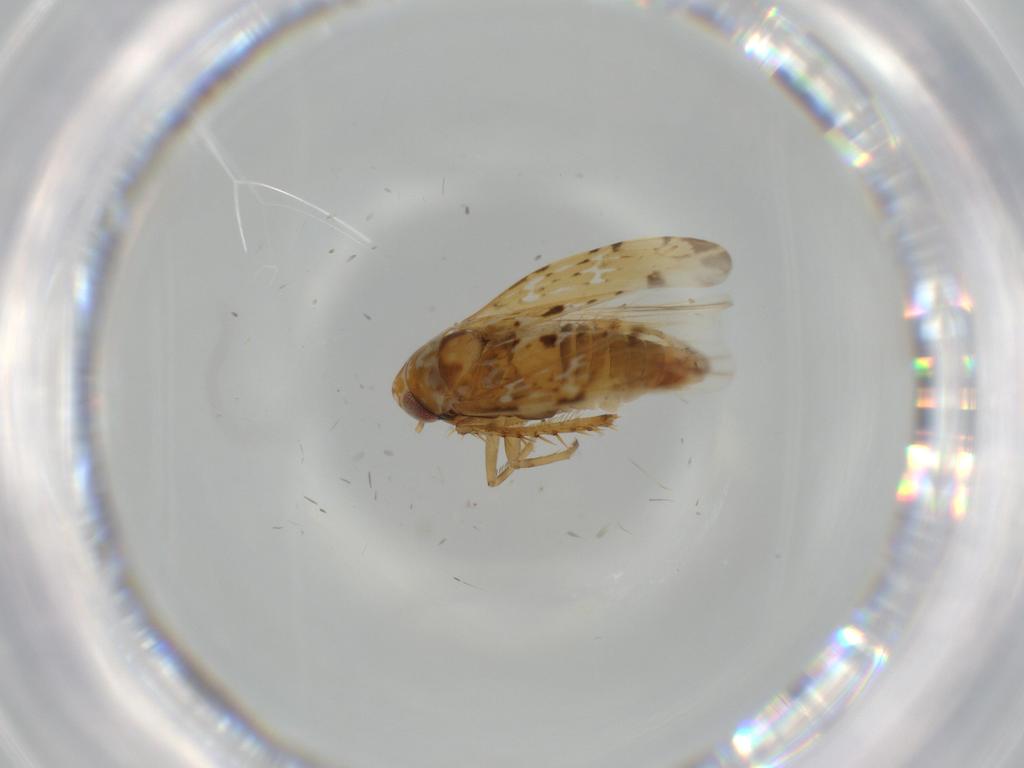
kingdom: Animalia
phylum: Arthropoda
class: Insecta
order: Hemiptera
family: Cicadellidae
